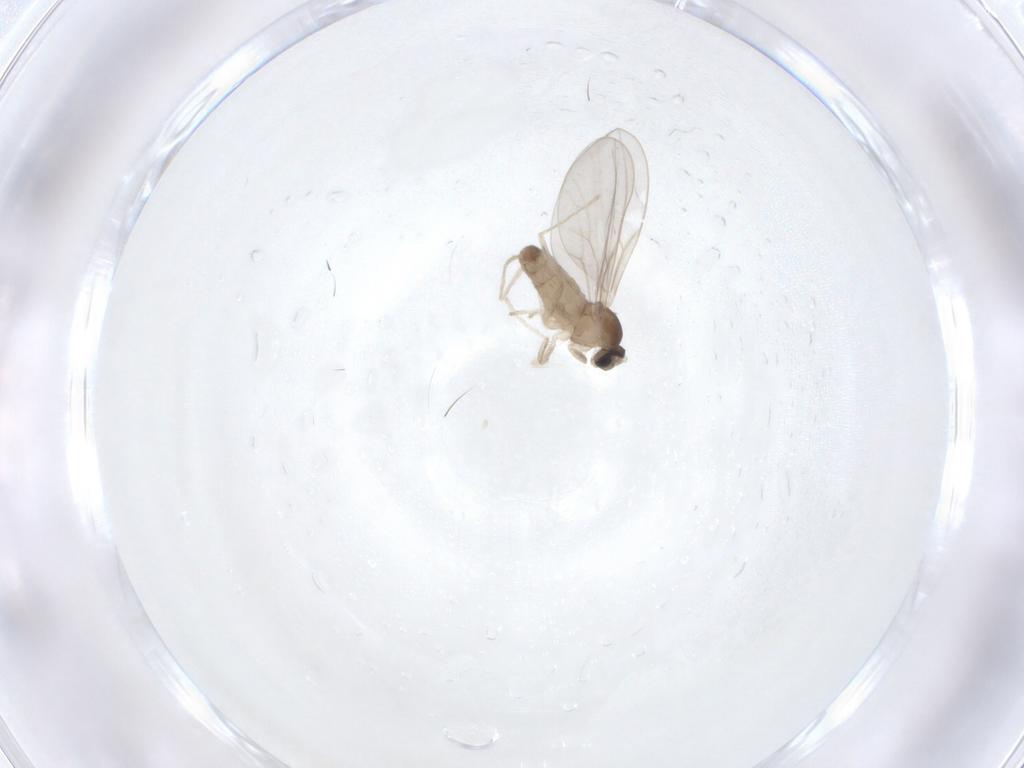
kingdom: Animalia
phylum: Arthropoda
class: Insecta
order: Diptera
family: Cecidomyiidae
